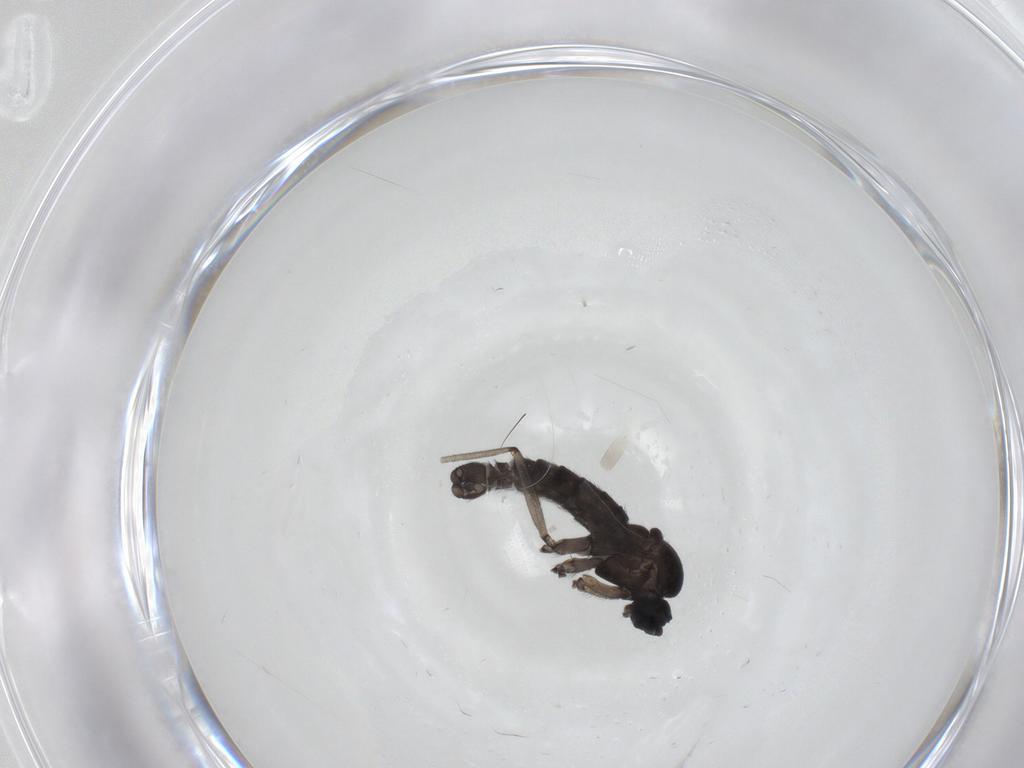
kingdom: Animalia
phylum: Arthropoda
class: Insecta
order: Diptera
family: Sciaridae
